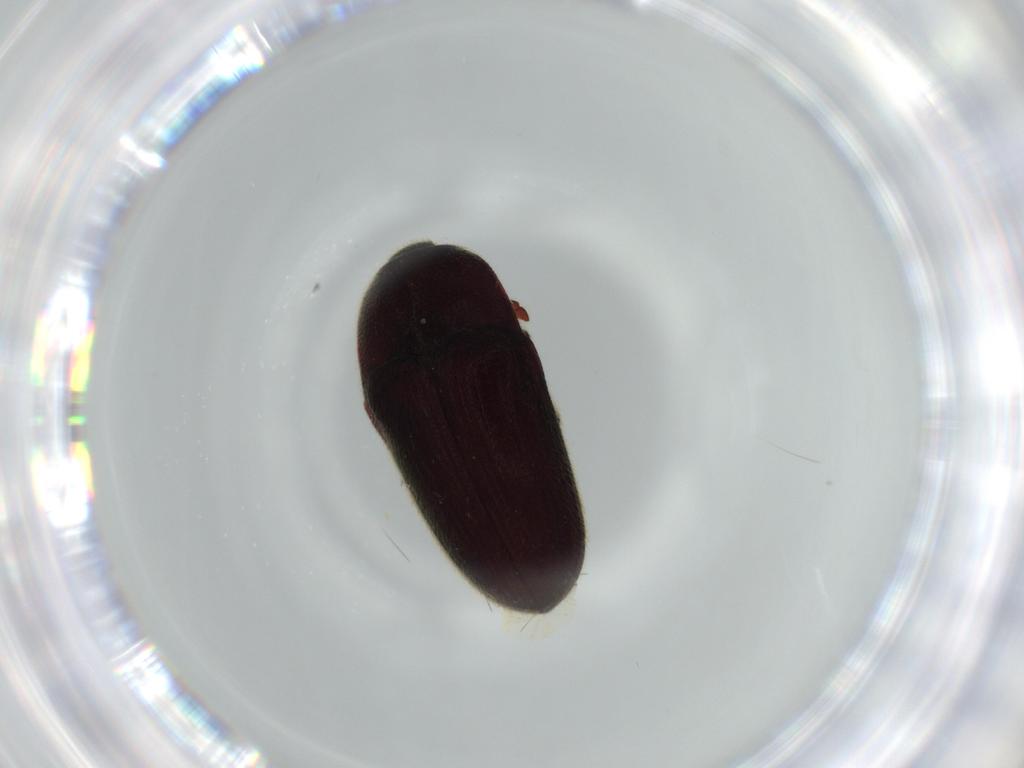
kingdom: Animalia
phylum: Arthropoda
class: Insecta
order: Coleoptera
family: Throscidae
